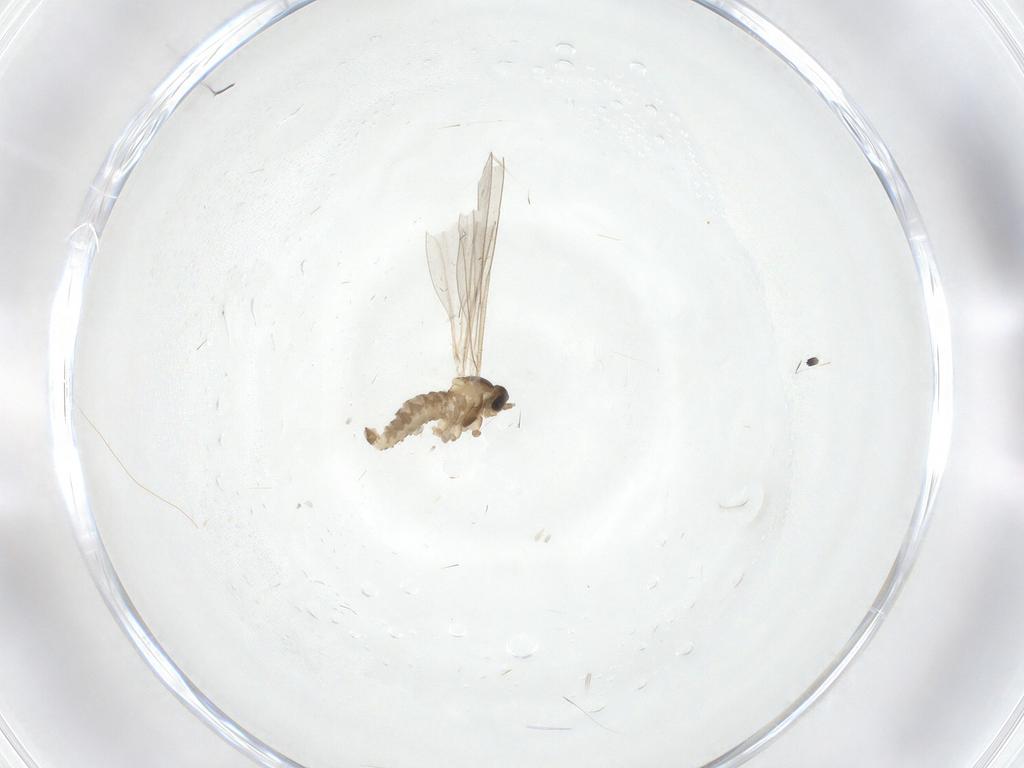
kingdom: Animalia
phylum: Arthropoda
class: Insecta
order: Diptera
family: Cecidomyiidae
